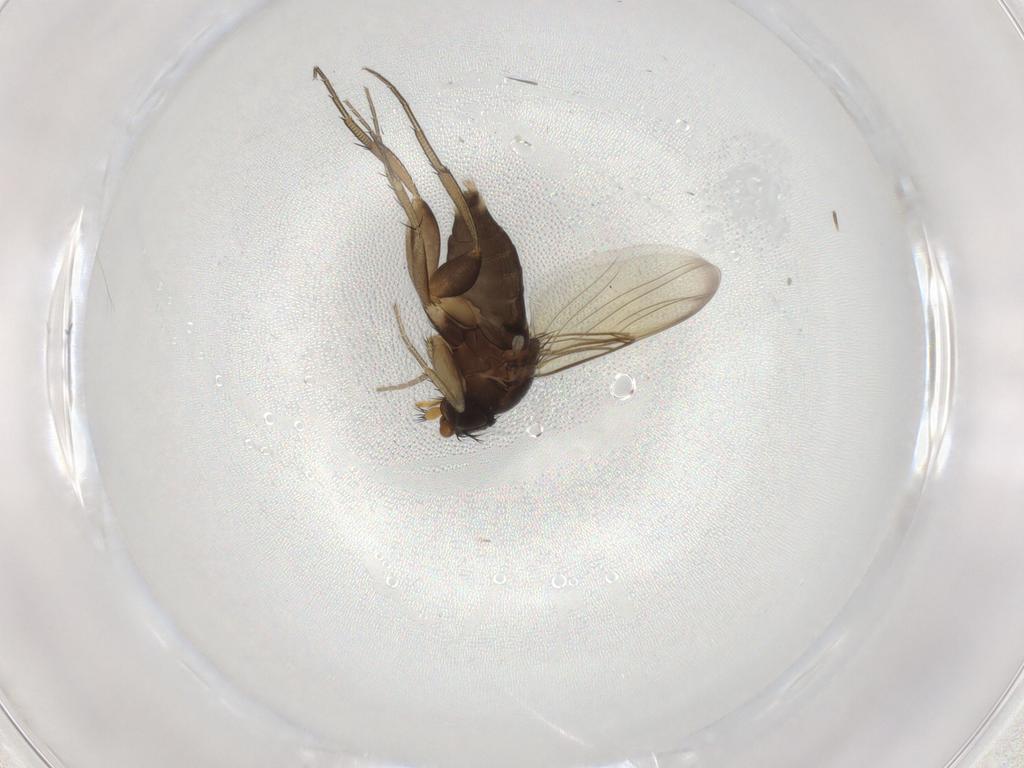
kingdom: Animalia
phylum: Arthropoda
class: Insecta
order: Diptera
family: Phoridae
